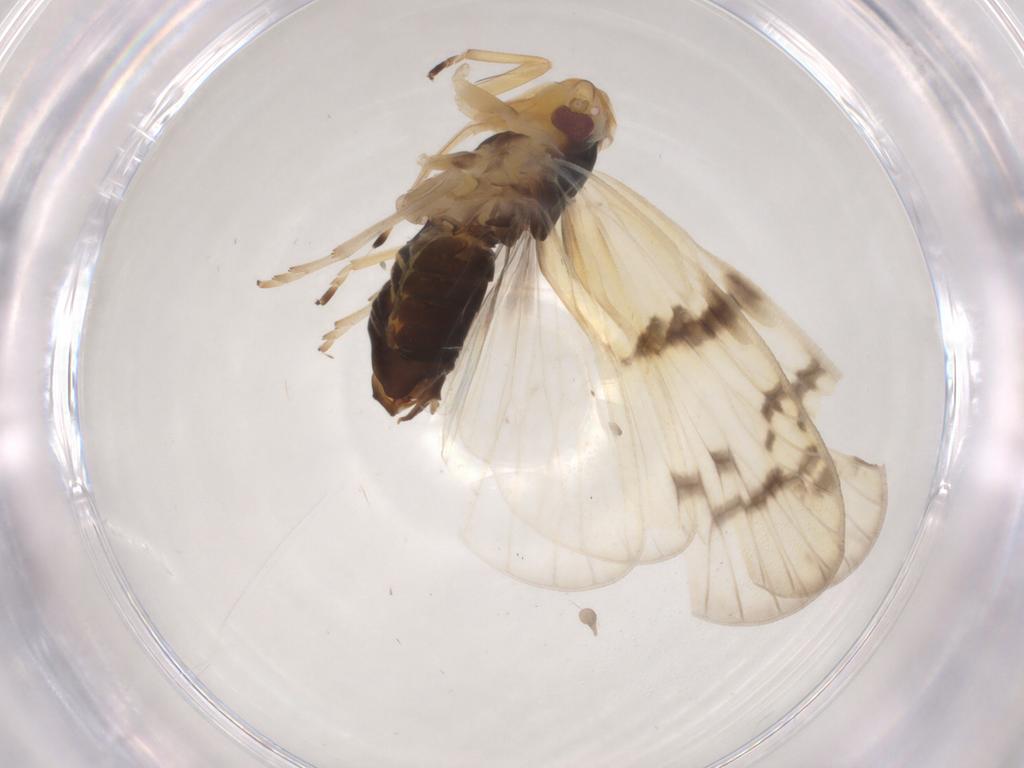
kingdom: Animalia
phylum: Arthropoda
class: Insecta
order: Hemiptera
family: Cixiidae
